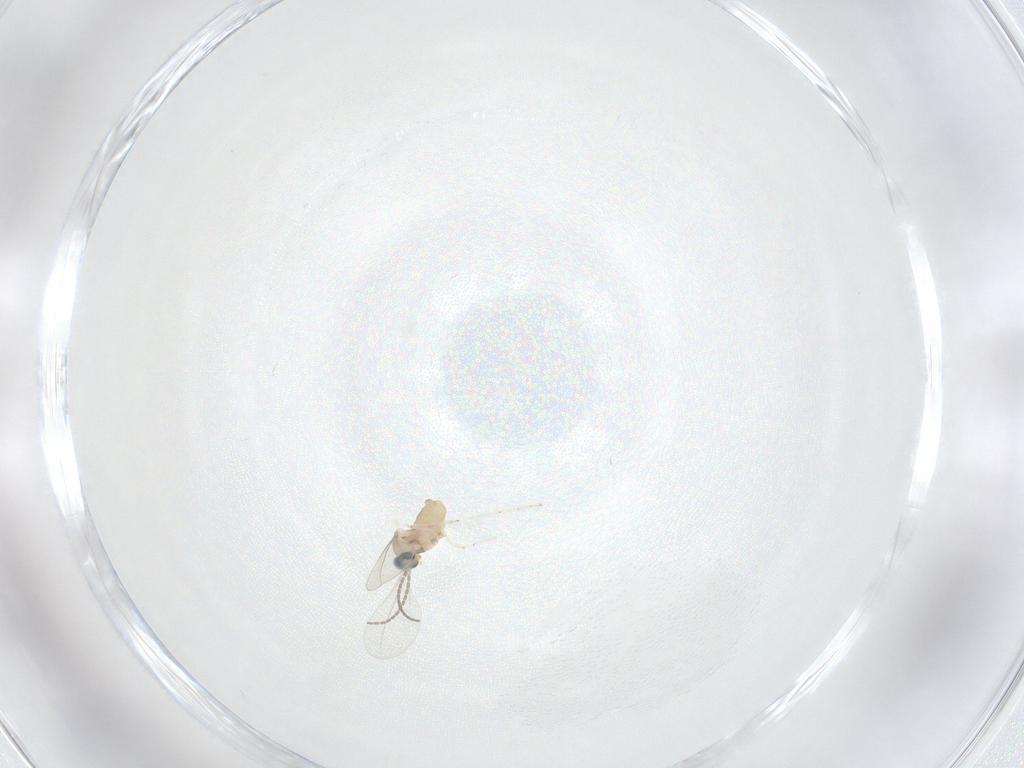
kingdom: Animalia
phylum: Arthropoda
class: Insecta
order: Diptera
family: Cecidomyiidae
